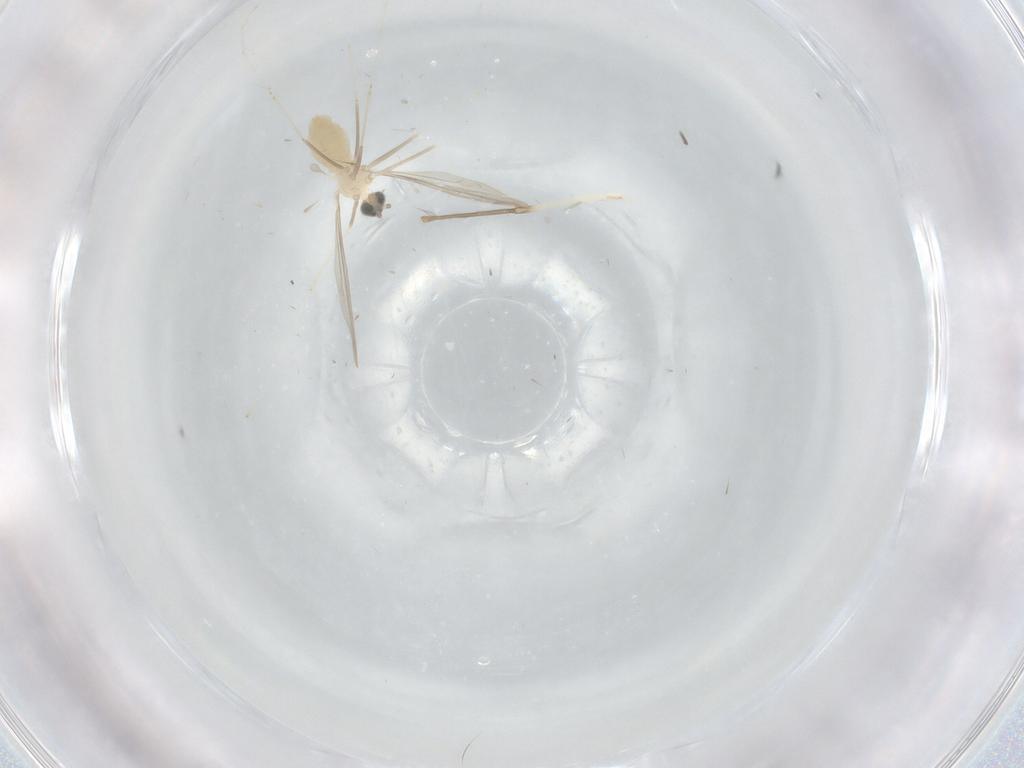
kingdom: Animalia
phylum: Arthropoda
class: Insecta
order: Diptera
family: Cecidomyiidae
